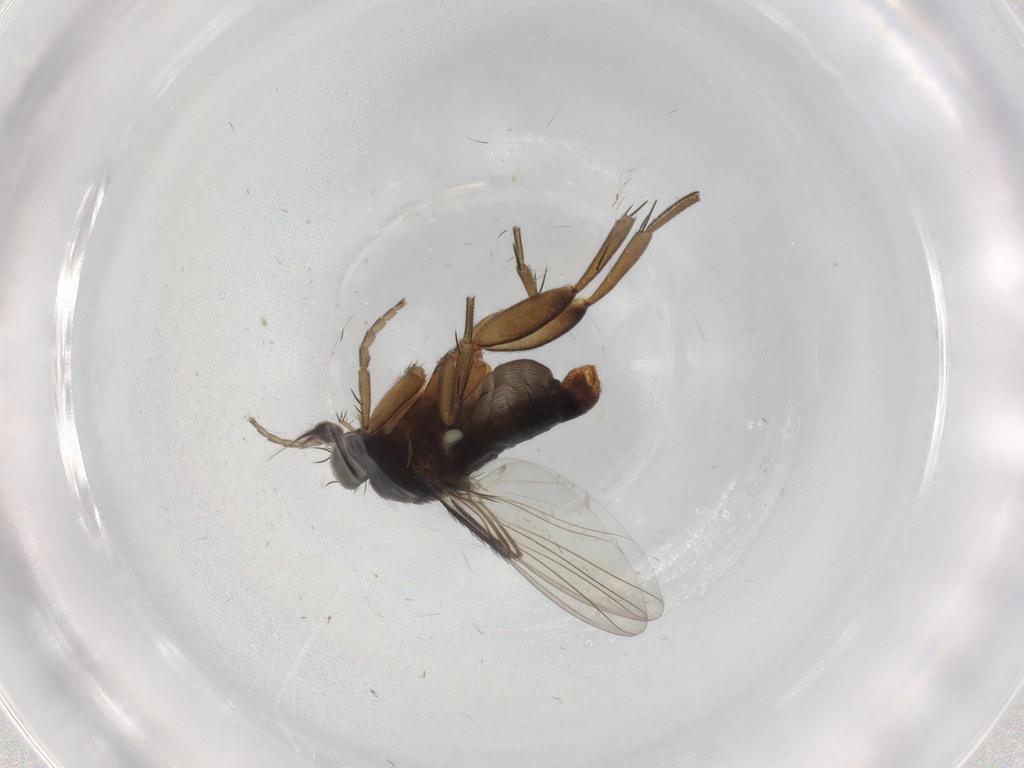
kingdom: Animalia
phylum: Arthropoda
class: Insecta
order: Diptera
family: Phoridae
